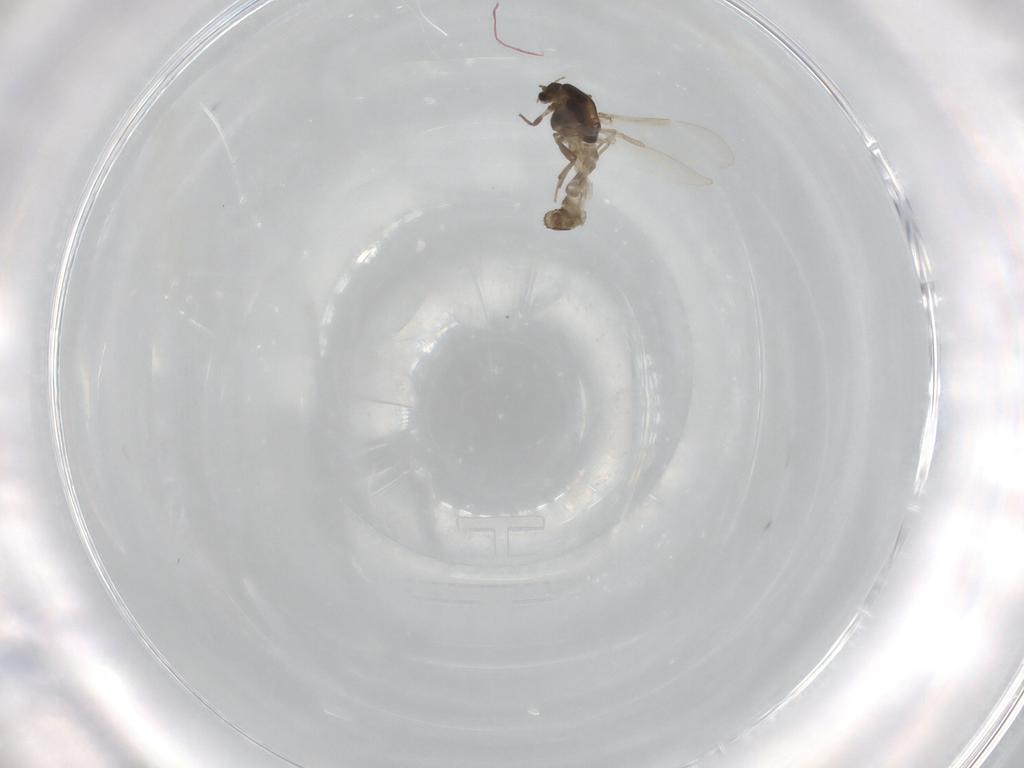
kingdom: Animalia
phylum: Arthropoda
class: Insecta
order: Diptera
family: Chironomidae
